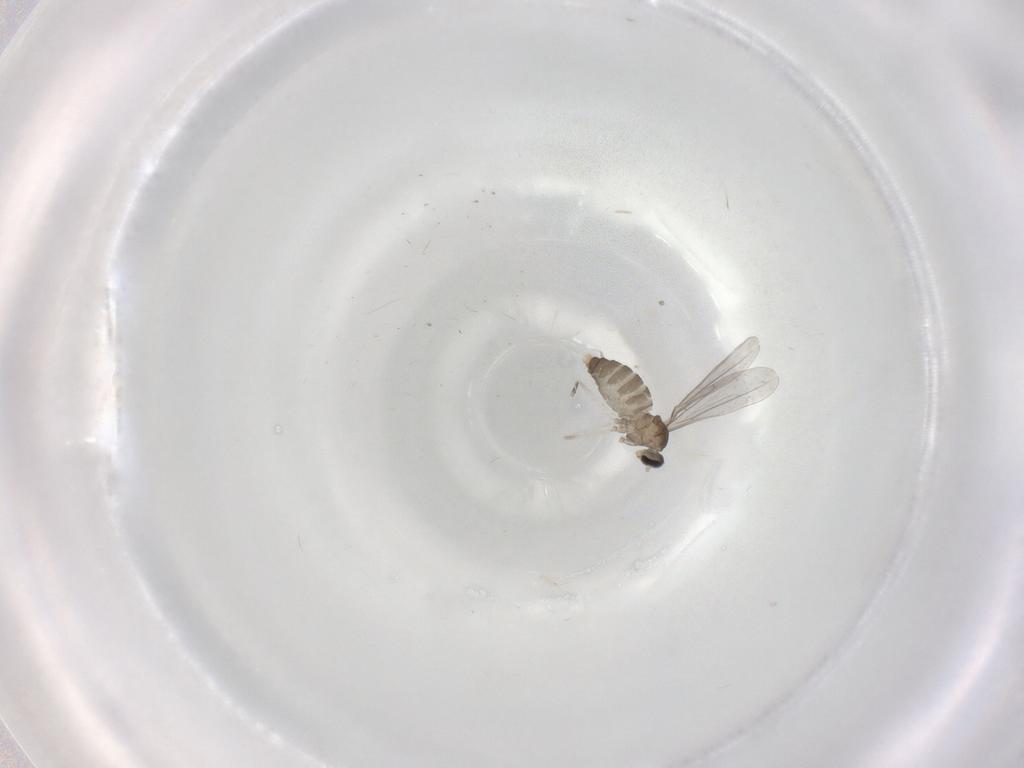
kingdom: Animalia
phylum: Arthropoda
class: Insecta
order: Diptera
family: Cecidomyiidae
